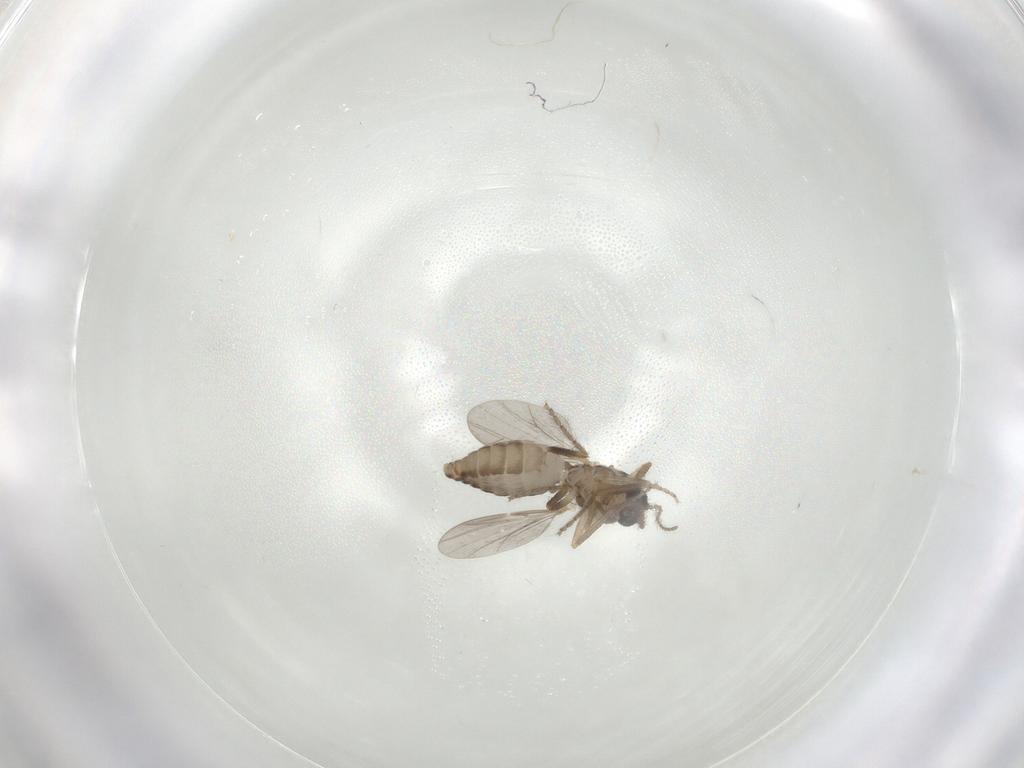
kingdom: Animalia
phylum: Arthropoda
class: Insecta
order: Diptera
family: Ceratopogonidae
